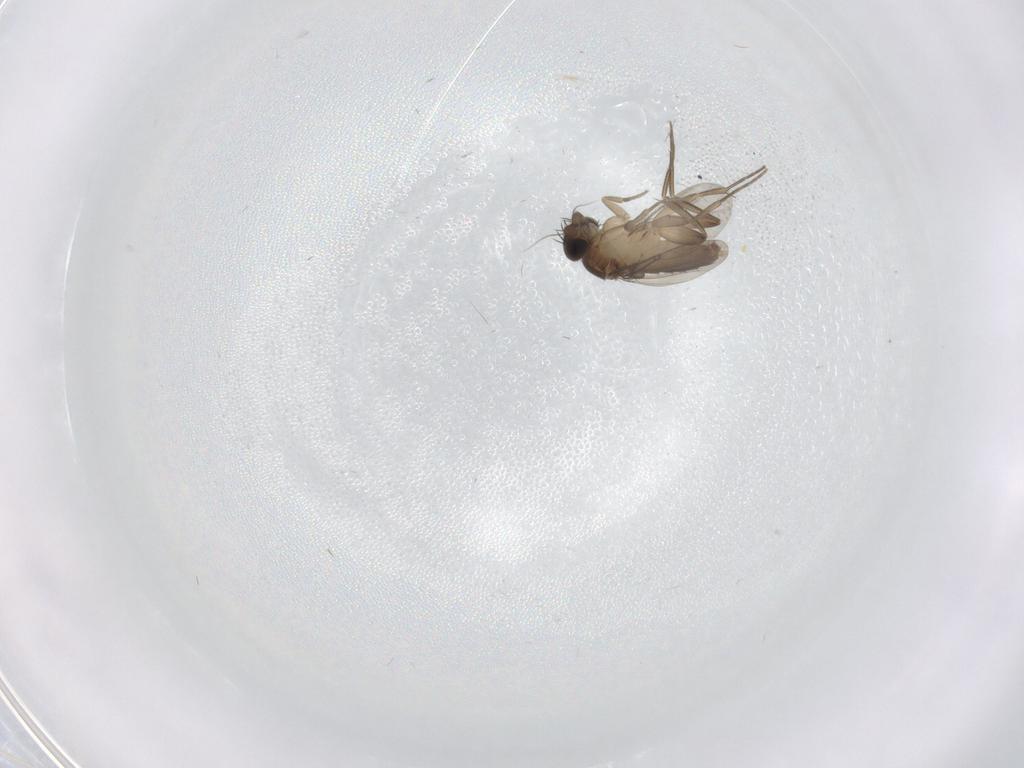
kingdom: Animalia
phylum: Arthropoda
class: Insecta
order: Diptera
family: Phoridae
